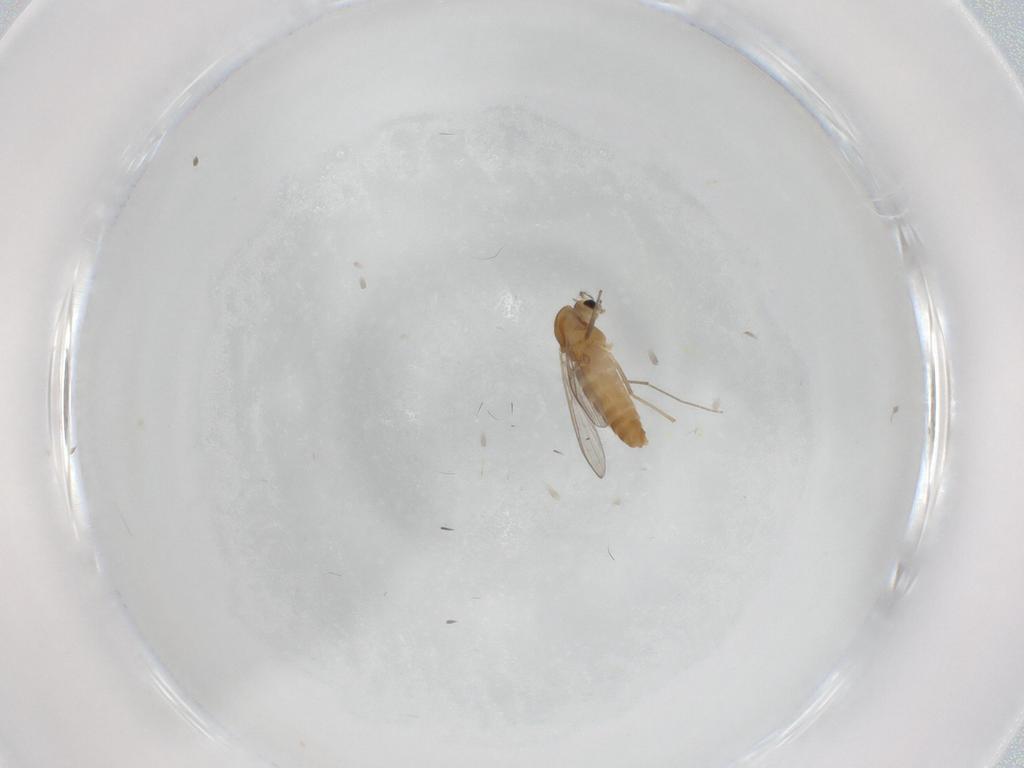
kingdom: Animalia
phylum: Arthropoda
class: Insecta
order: Diptera
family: Chironomidae
